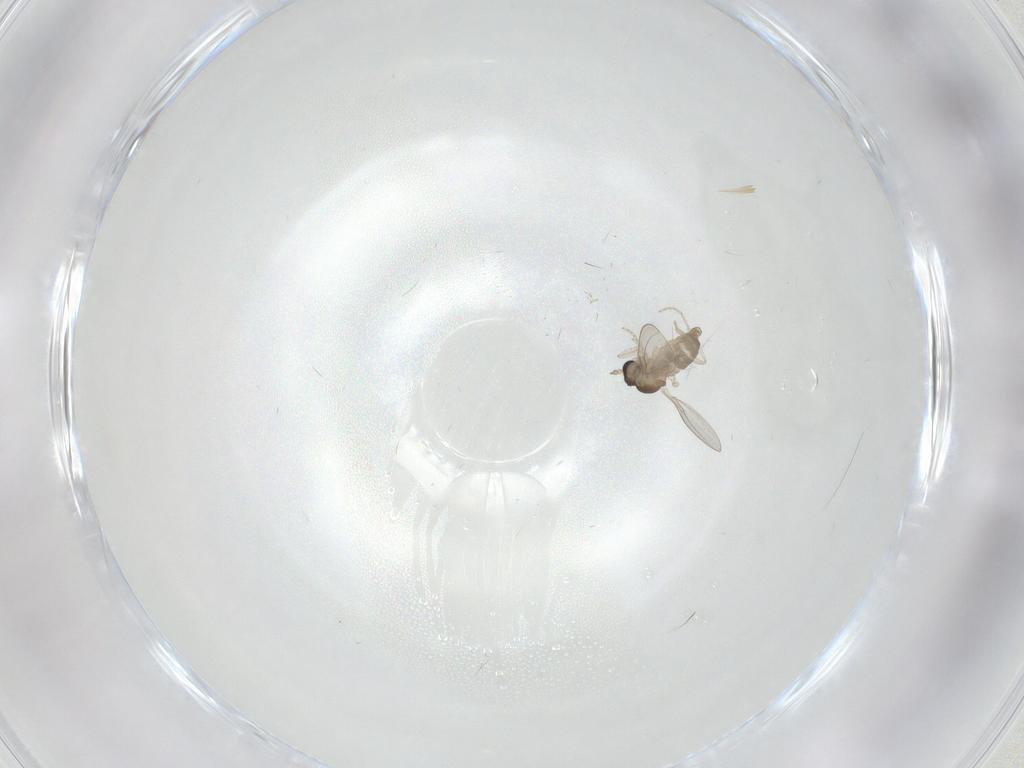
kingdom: Animalia
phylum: Arthropoda
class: Insecta
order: Diptera
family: Cecidomyiidae
